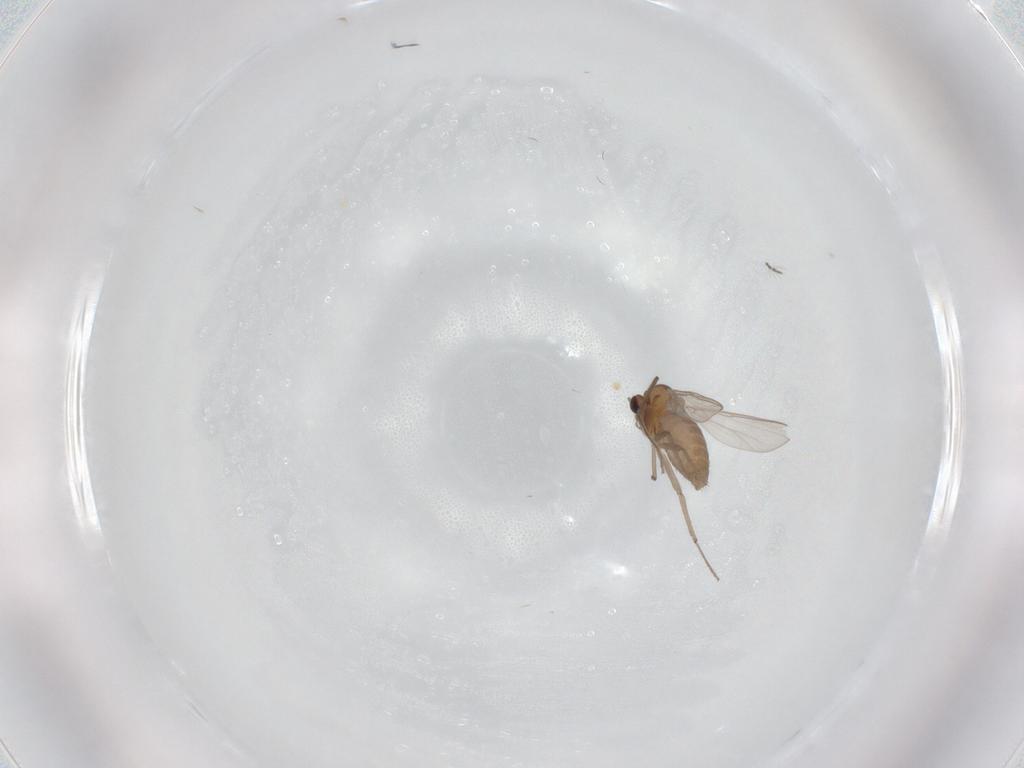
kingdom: Animalia
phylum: Arthropoda
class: Insecta
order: Diptera
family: Chironomidae
